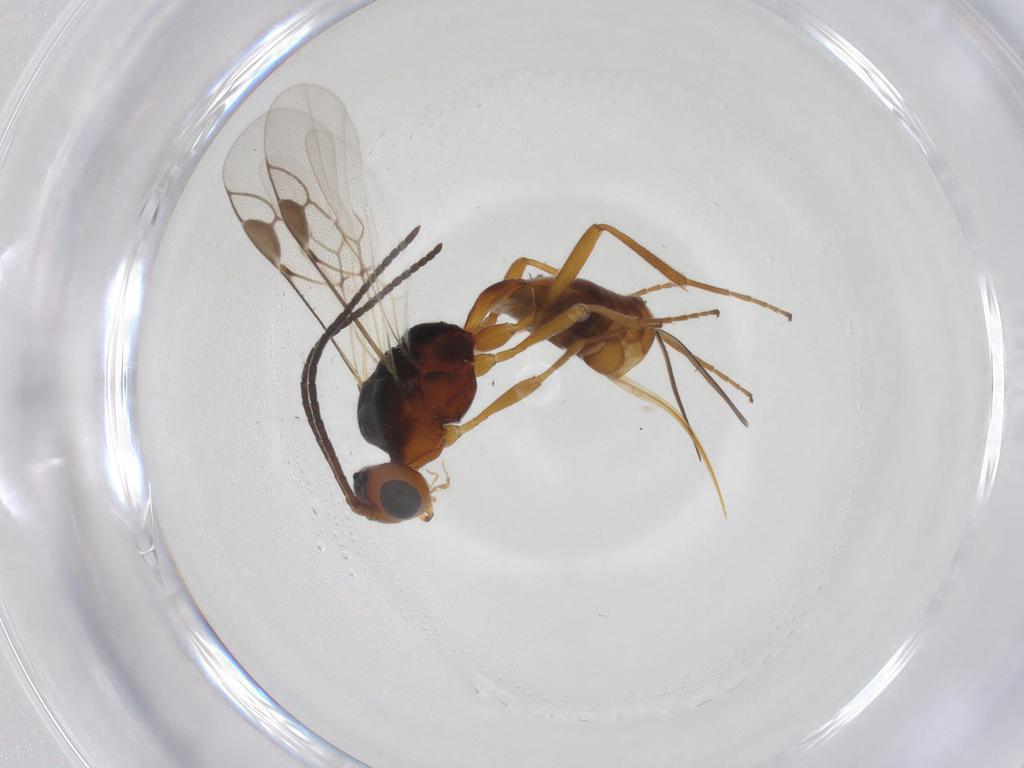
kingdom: Animalia
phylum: Arthropoda
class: Insecta
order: Hymenoptera
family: Braconidae
